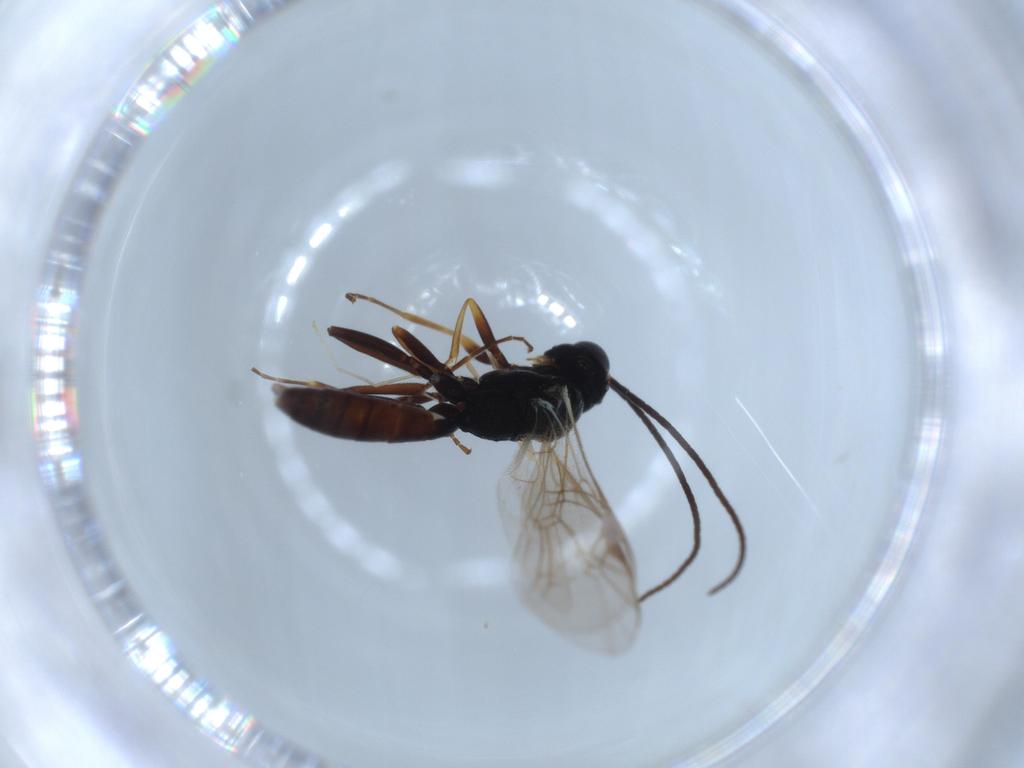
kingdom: Animalia
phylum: Arthropoda
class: Insecta
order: Hymenoptera
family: Ichneumonidae
